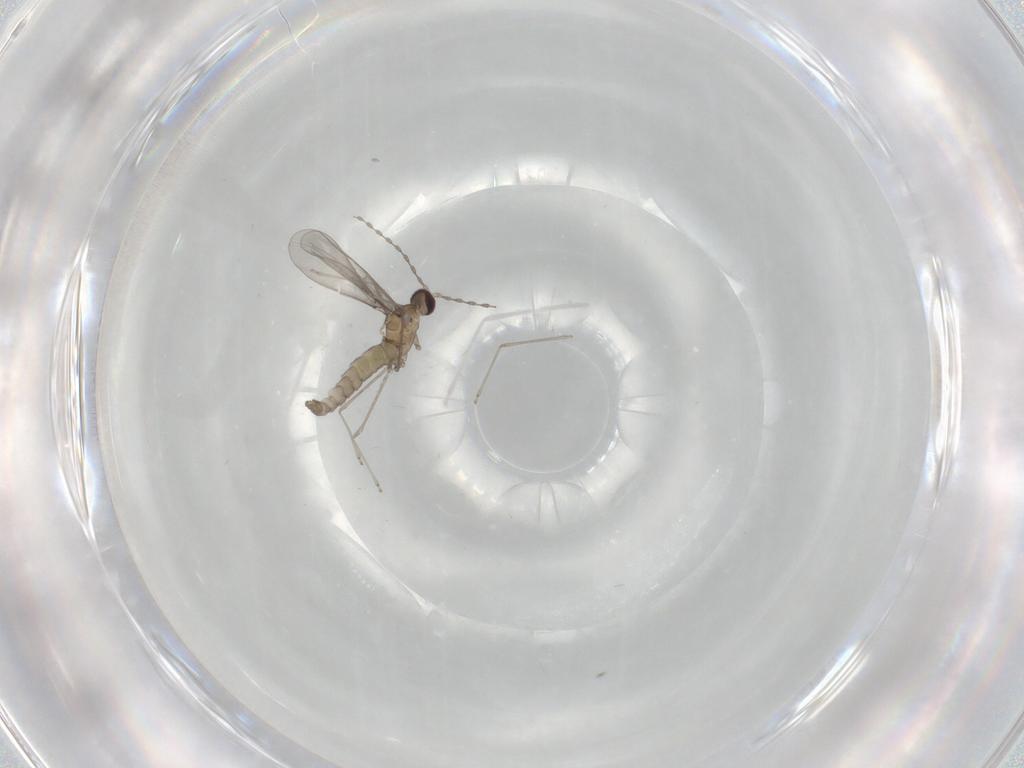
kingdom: Animalia
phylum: Arthropoda
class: Insecta
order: Diptera
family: Cecidomyiidae
